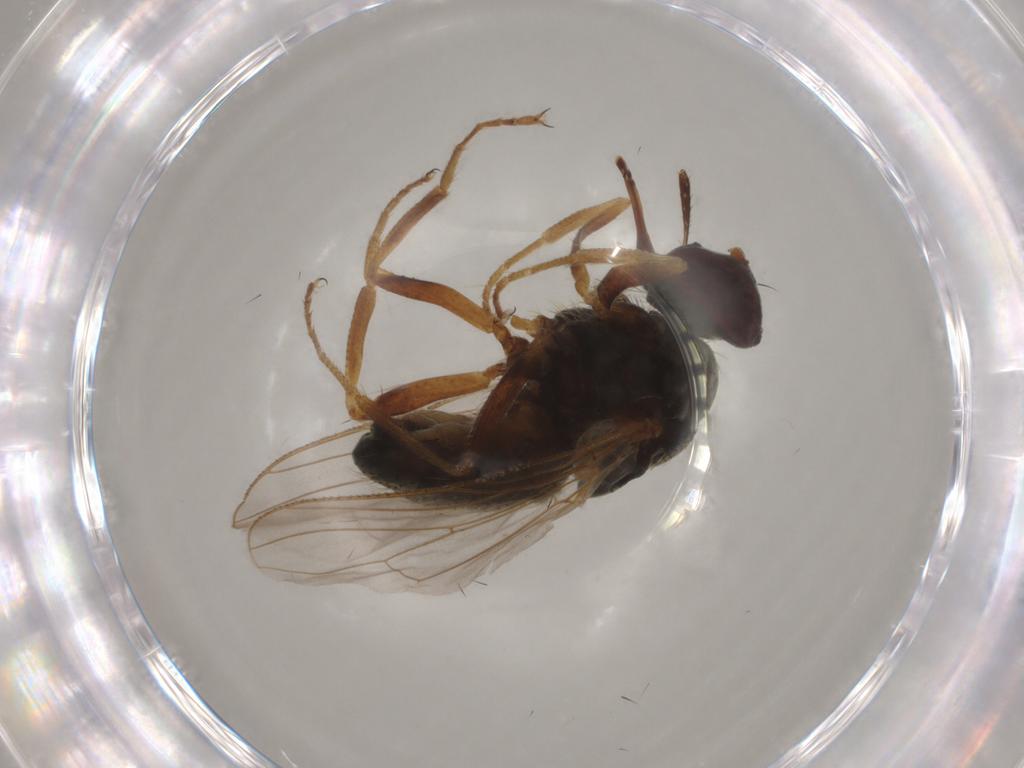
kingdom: Animalia
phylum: Arthropoda
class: Insecta
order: Diptera
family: Muscidae
